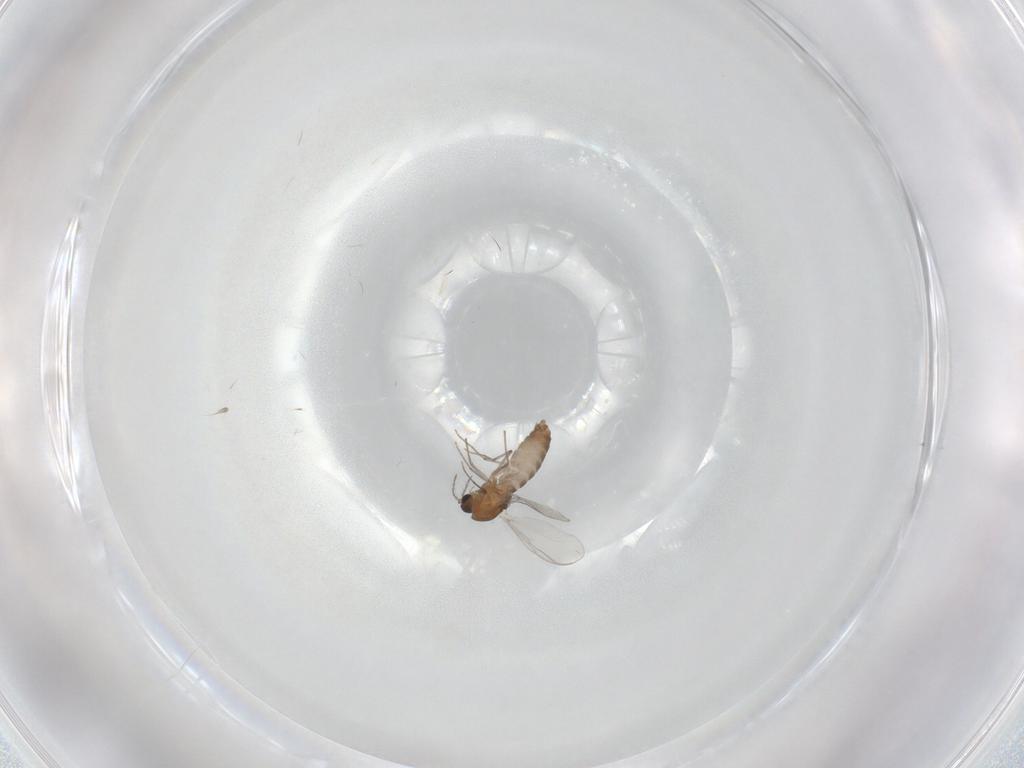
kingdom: Animalia
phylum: Arthropoda
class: Insecta
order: Diptera
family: Chironomidae
